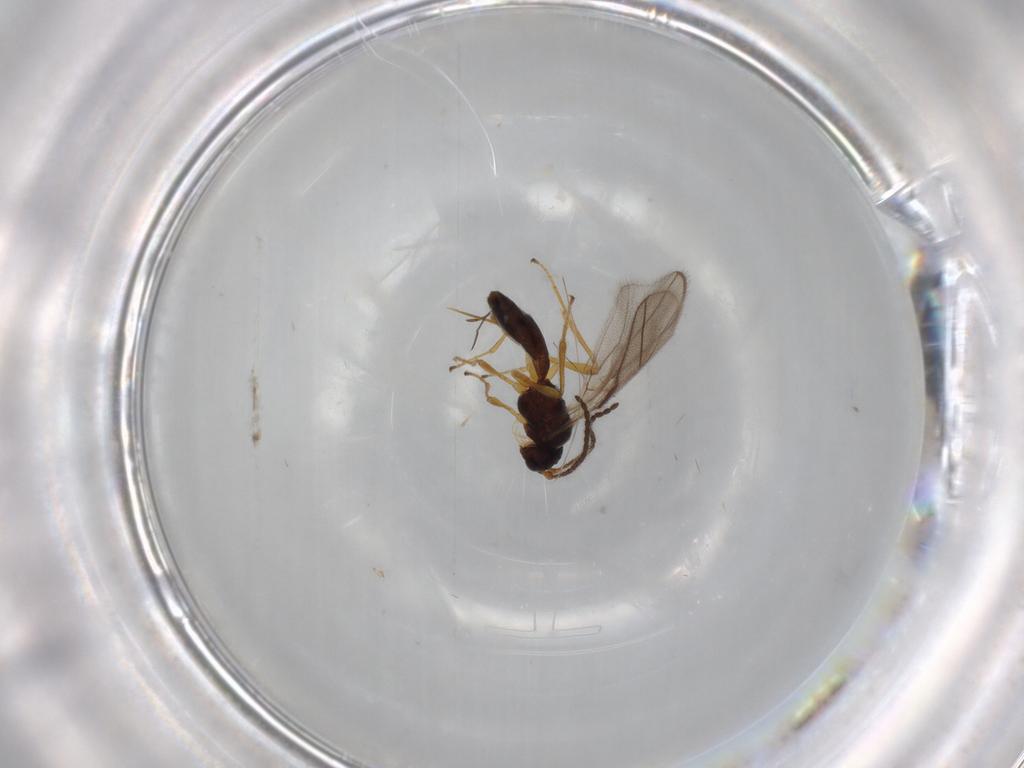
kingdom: Animalia
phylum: Arthropoda
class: Insecta
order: Hymenoptera
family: Braconidae
